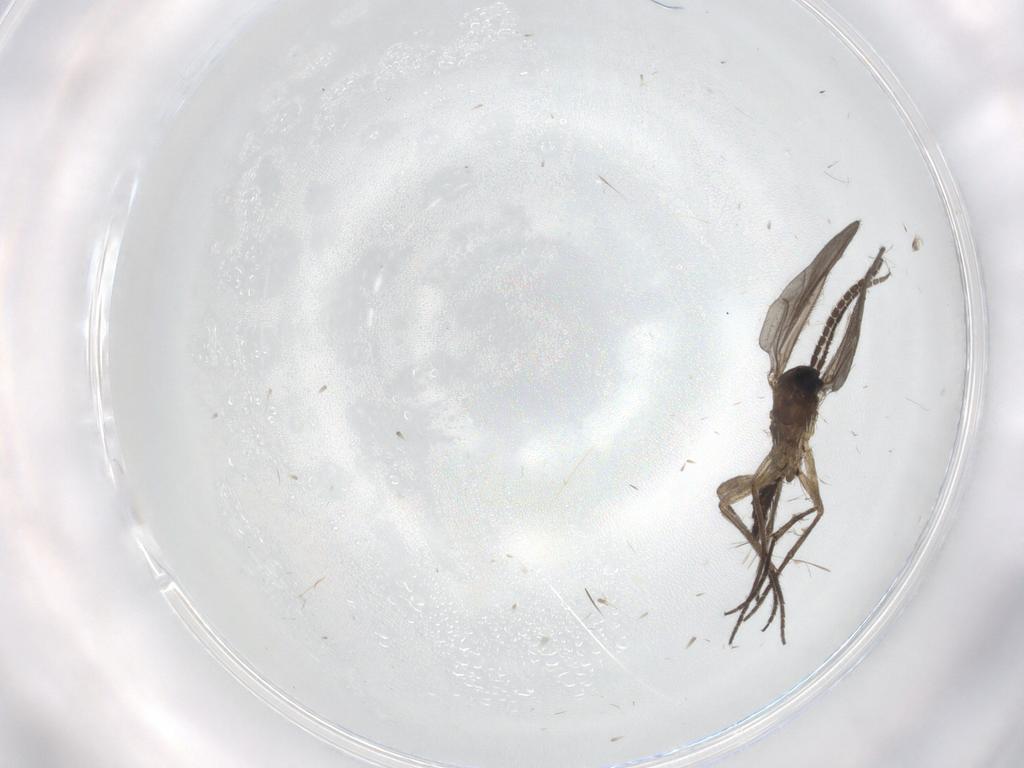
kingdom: Animalia
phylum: Arthropoda
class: Insecta
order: Diptera
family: Sciaridae
